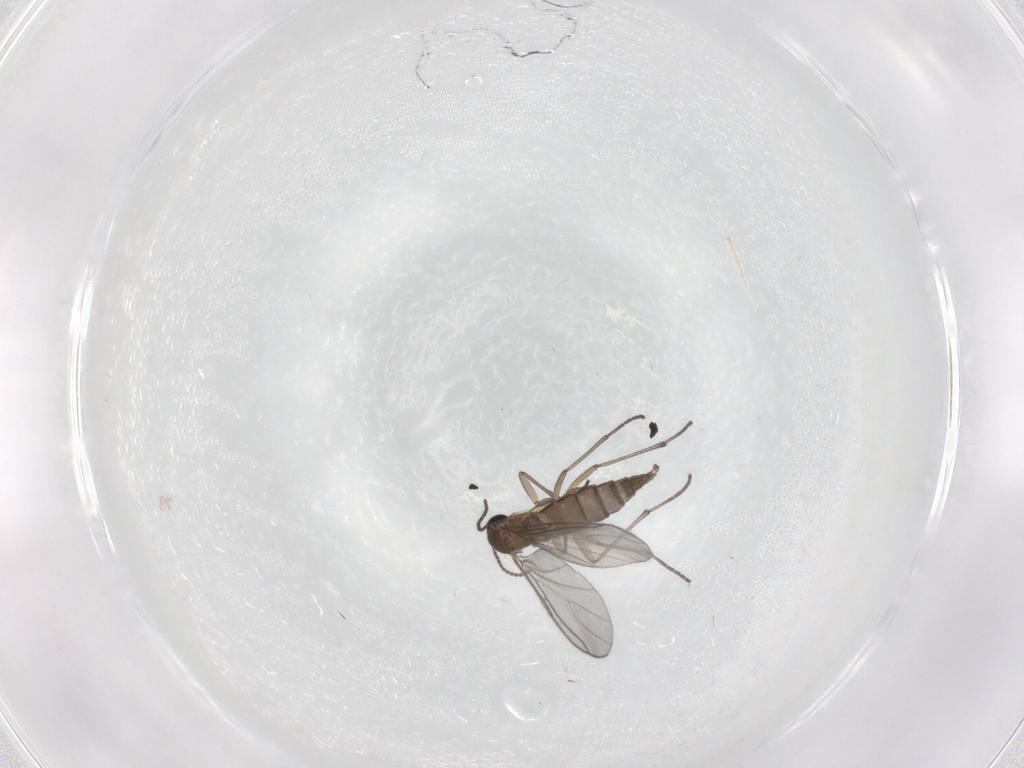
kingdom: Animalia
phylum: Arthropoda
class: Insecta
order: Diptera
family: Sciaridae
